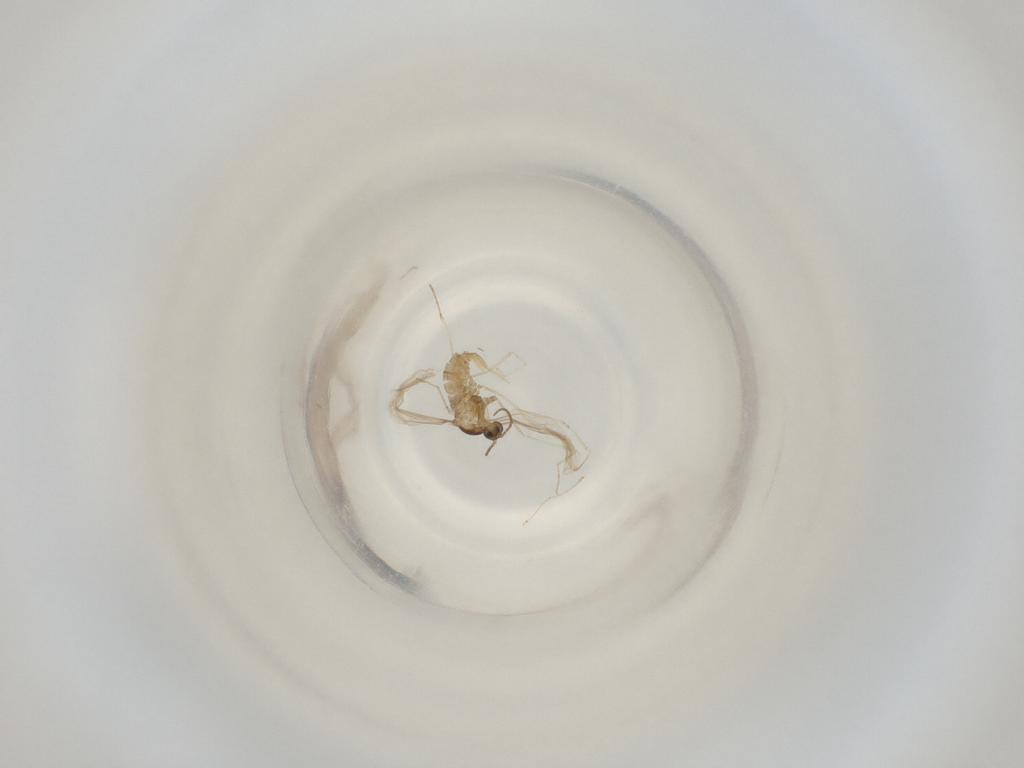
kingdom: Animalia
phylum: Arthropoda
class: Insecta
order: Diptera
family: Cecidomyiidae
